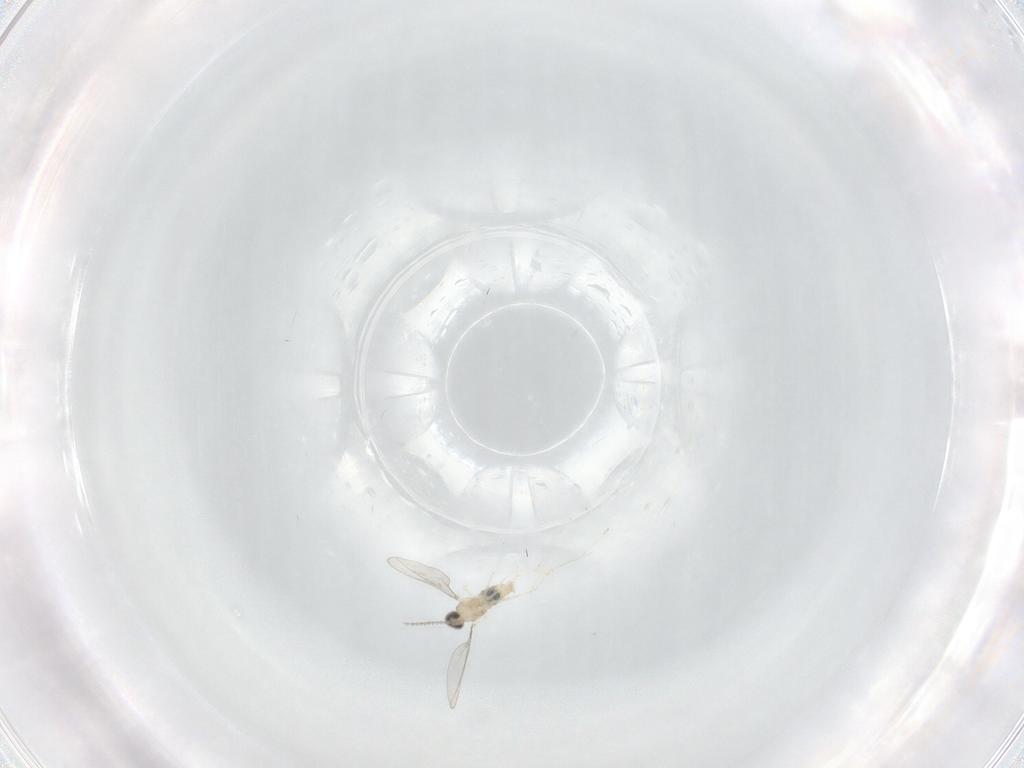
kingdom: Animalia
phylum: Arthropoda
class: Insecta
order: Diptera
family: Cecidomyiidae
